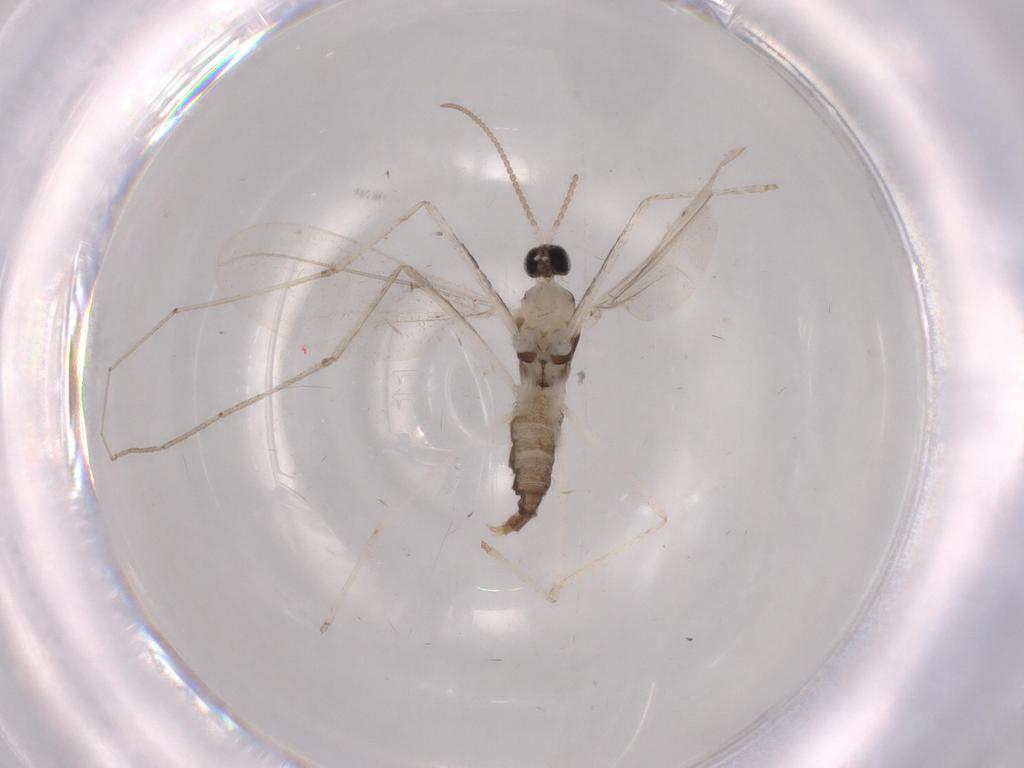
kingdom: Animalia
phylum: Arthropoda
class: Insecta
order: Diptera
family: Cecidomyiidae
